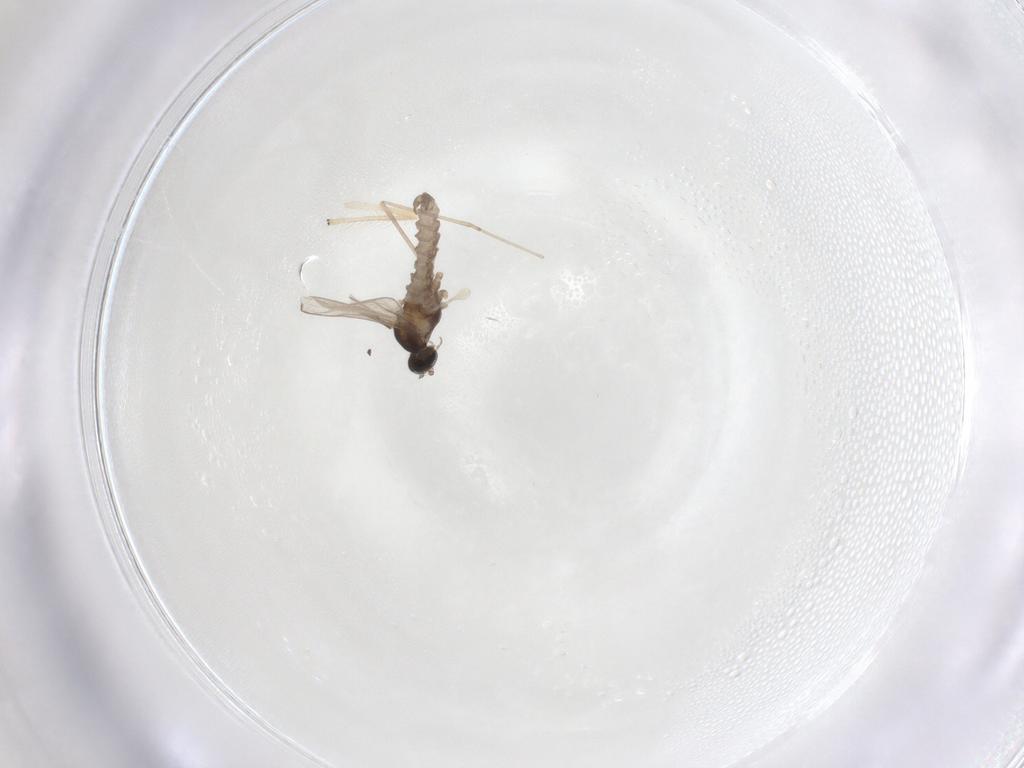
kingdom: Animalia
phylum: Arthropoda
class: Insecta
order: Diptera
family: Cecidomyiidae
